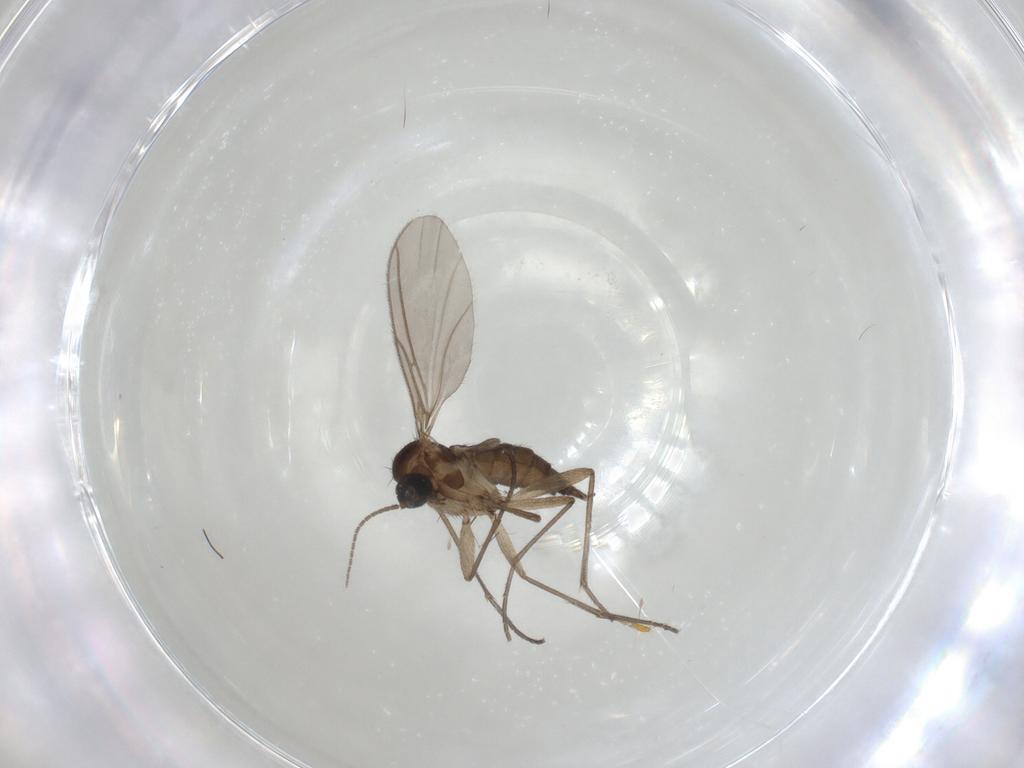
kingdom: Animalia
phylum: Arthropoda
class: Insecta
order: Diptera
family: Sciaridae
